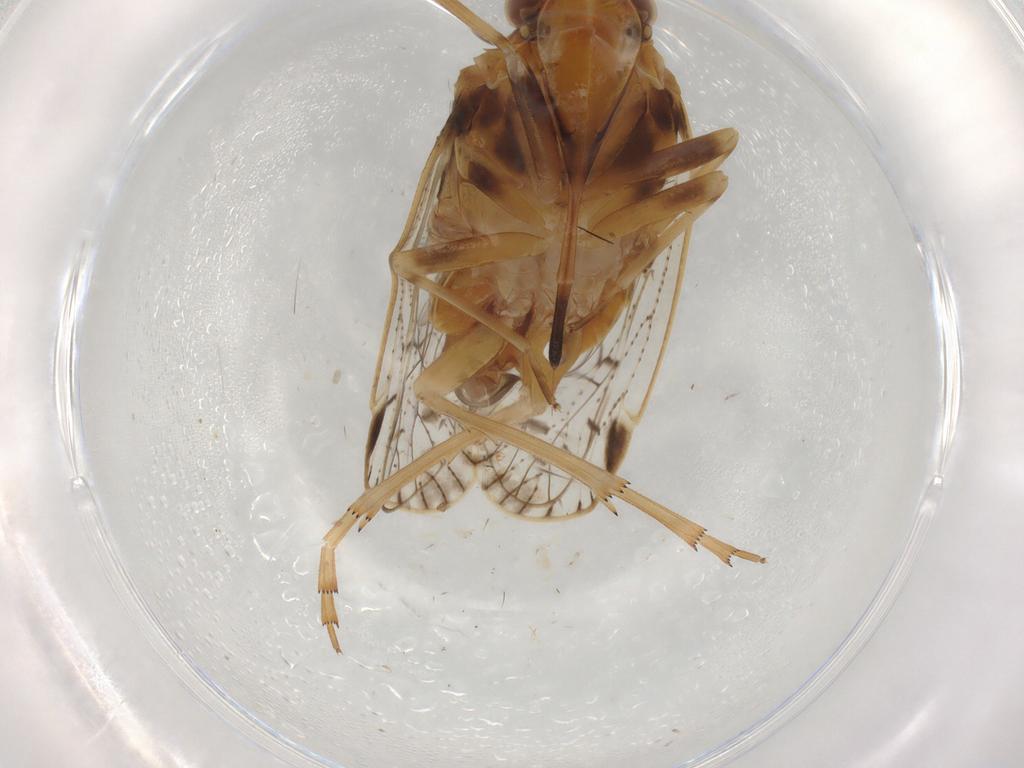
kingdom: Animalia
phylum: Arthropoda
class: Insecta
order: Hemiptera
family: Cixiidae
